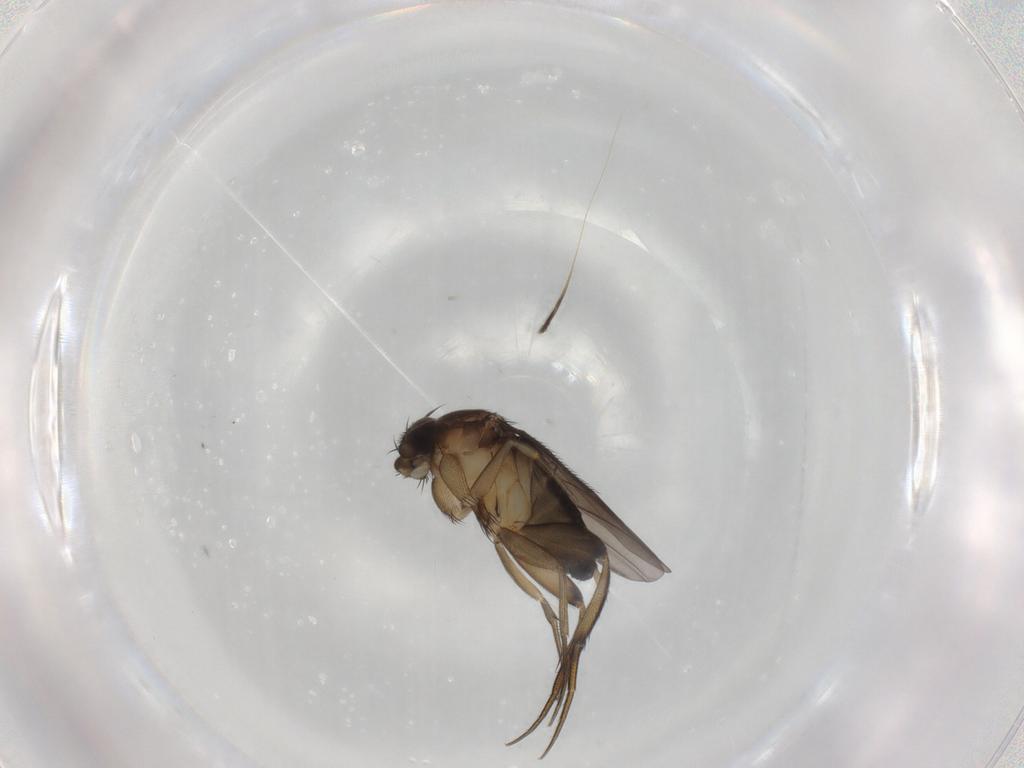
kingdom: Animalia
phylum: Arthropoda
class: Insecta
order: Diptera
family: Phoridae
